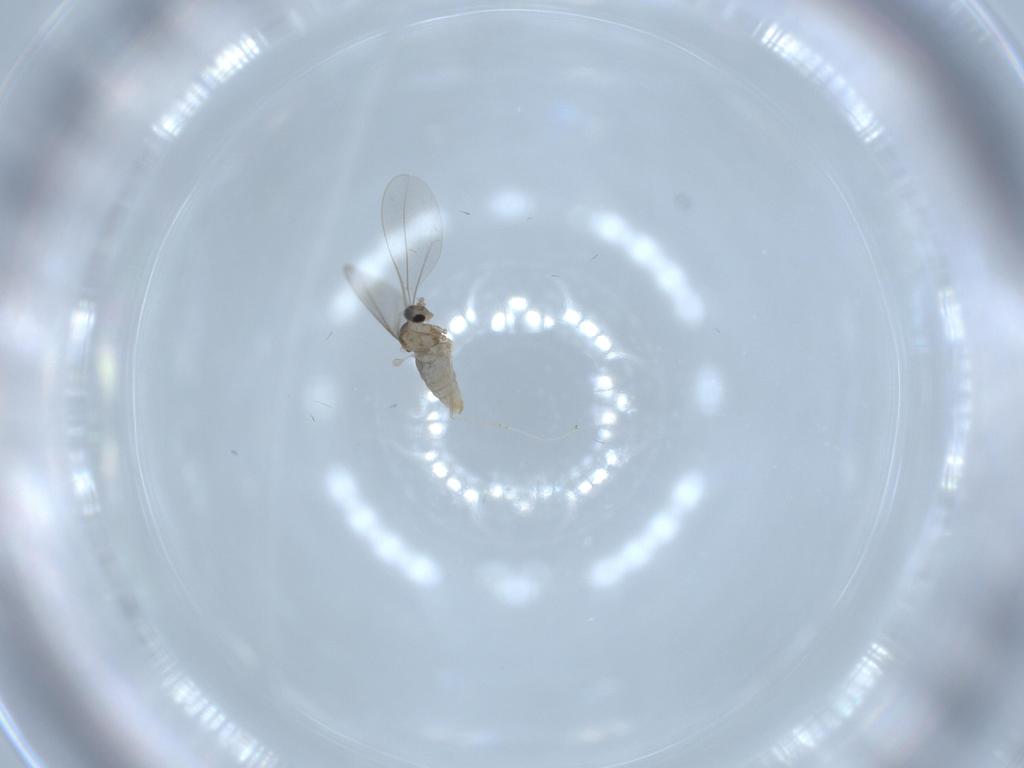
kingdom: Animalia
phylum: Arthropoda
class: Insecta
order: Diptera
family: Cecidomyiidae
